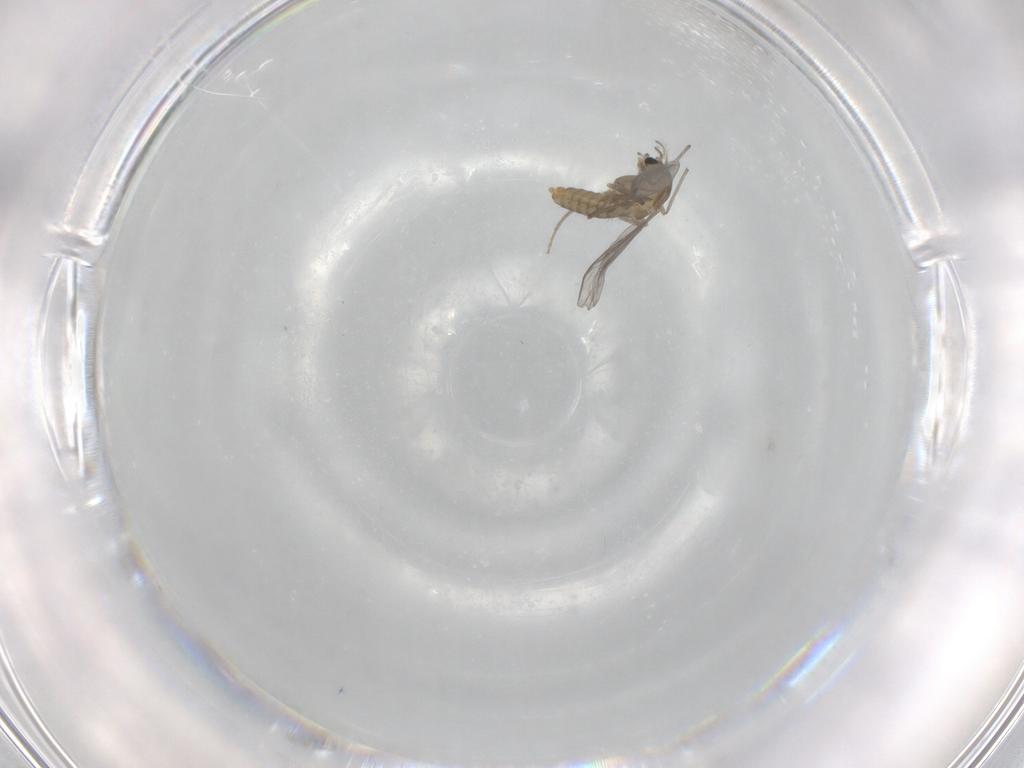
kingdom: Animalia
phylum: Arthropoda
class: Insecta
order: Diptera
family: Chironomidae
